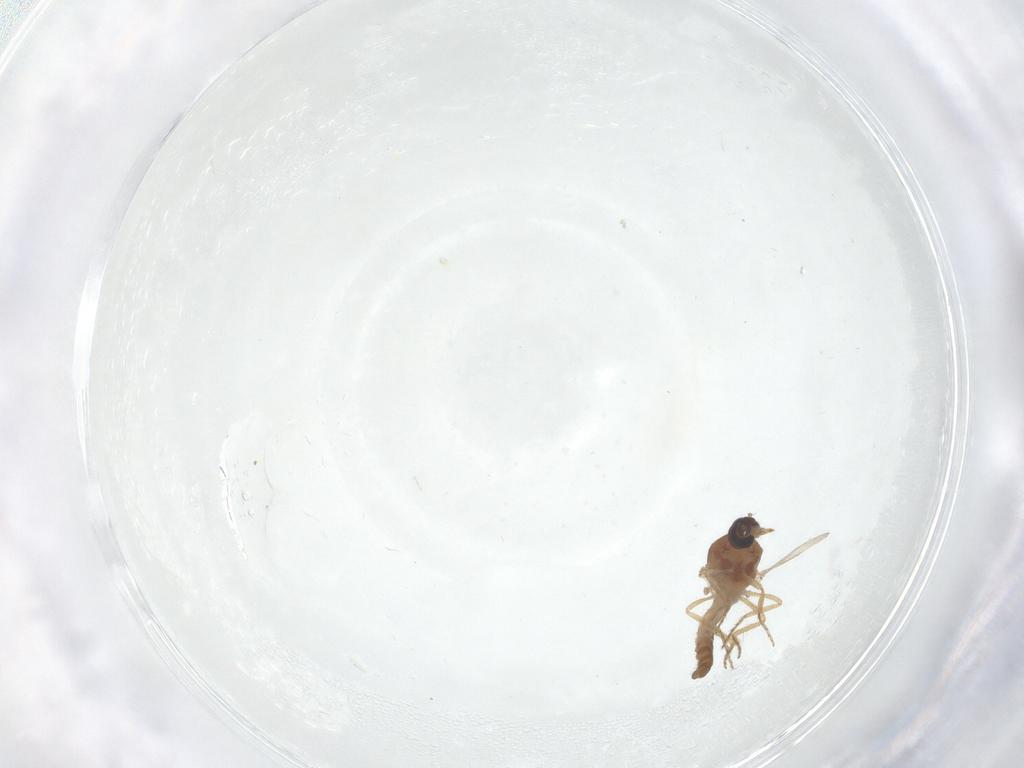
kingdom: Animalia
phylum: Arthropoda
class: Insecta
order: Diptera
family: Ceratopogonidae
